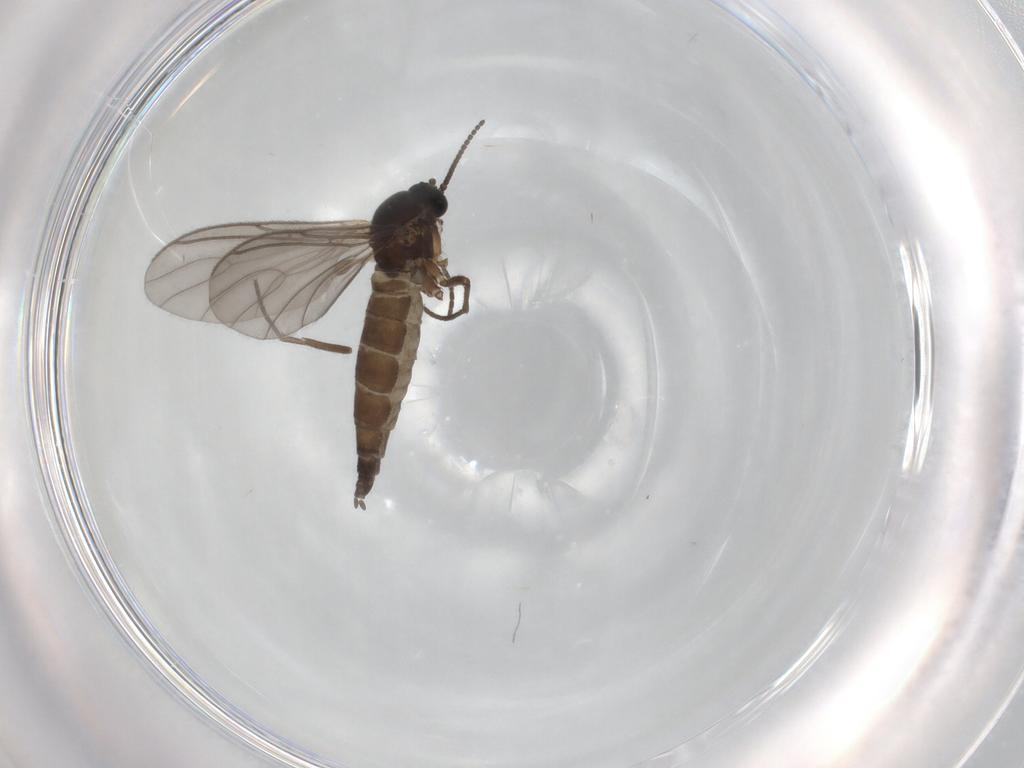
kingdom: Animalia
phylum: Arthropoda
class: Insecta
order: Diptera
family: Sciaridae
